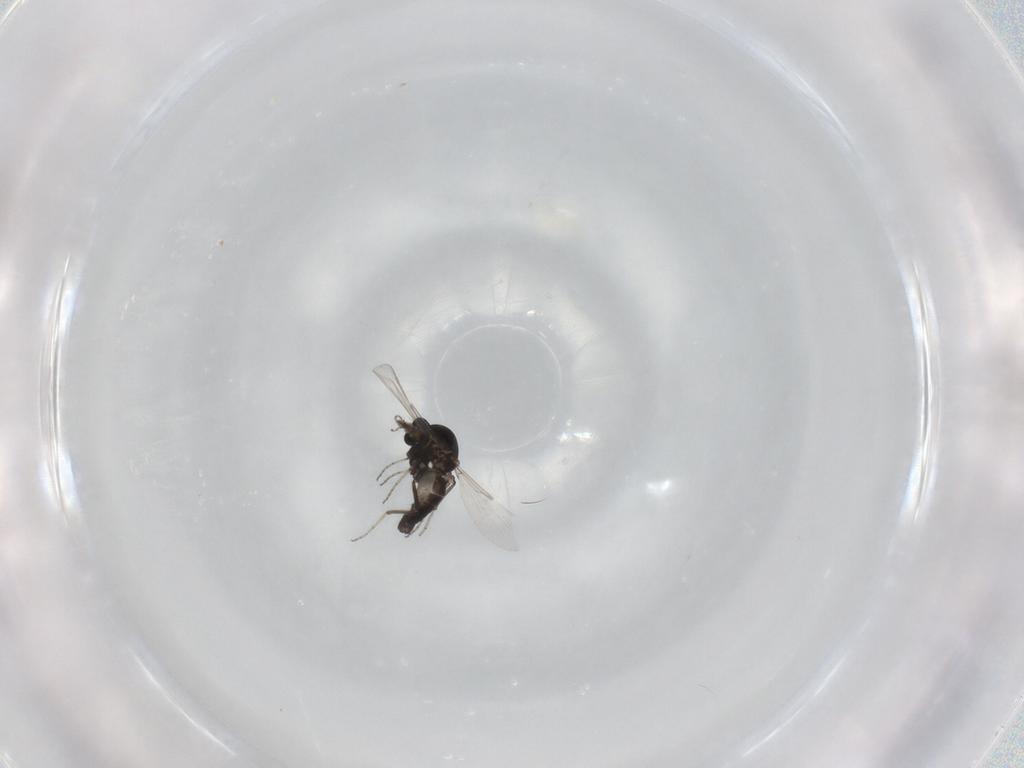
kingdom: Animalia
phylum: Arthropoda
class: Insecta
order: Diptera
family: Ceratopogonidae
